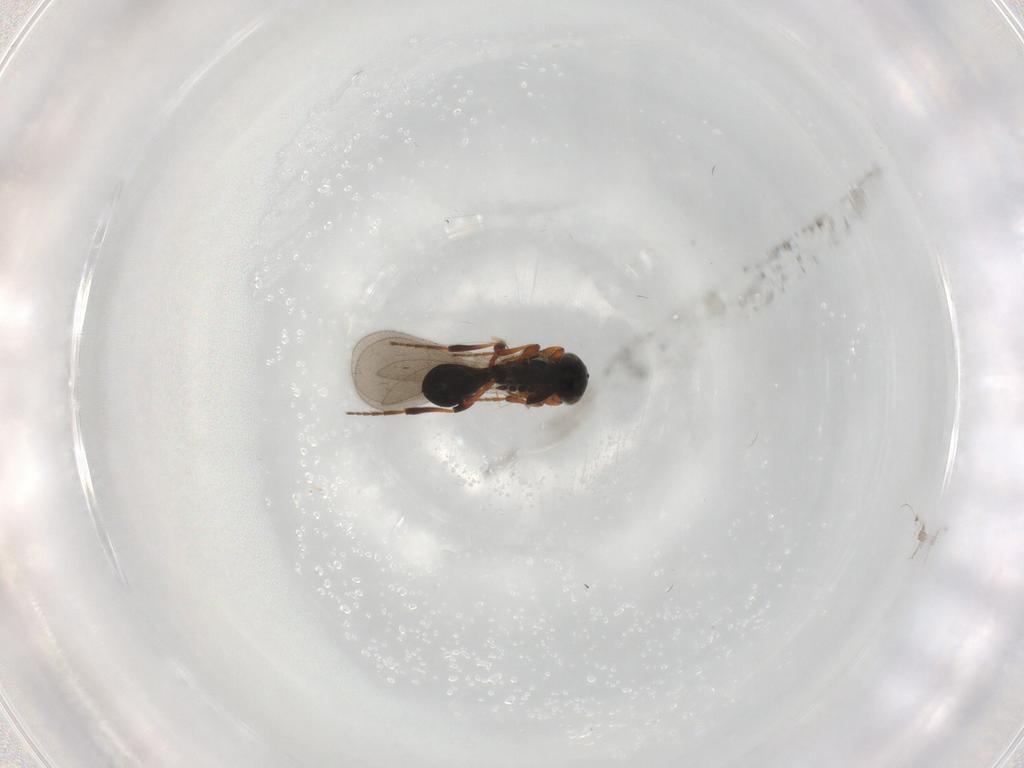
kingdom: Animalia
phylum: Arthropoda
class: Insecta
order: Hymenoptera
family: Platygastridae
